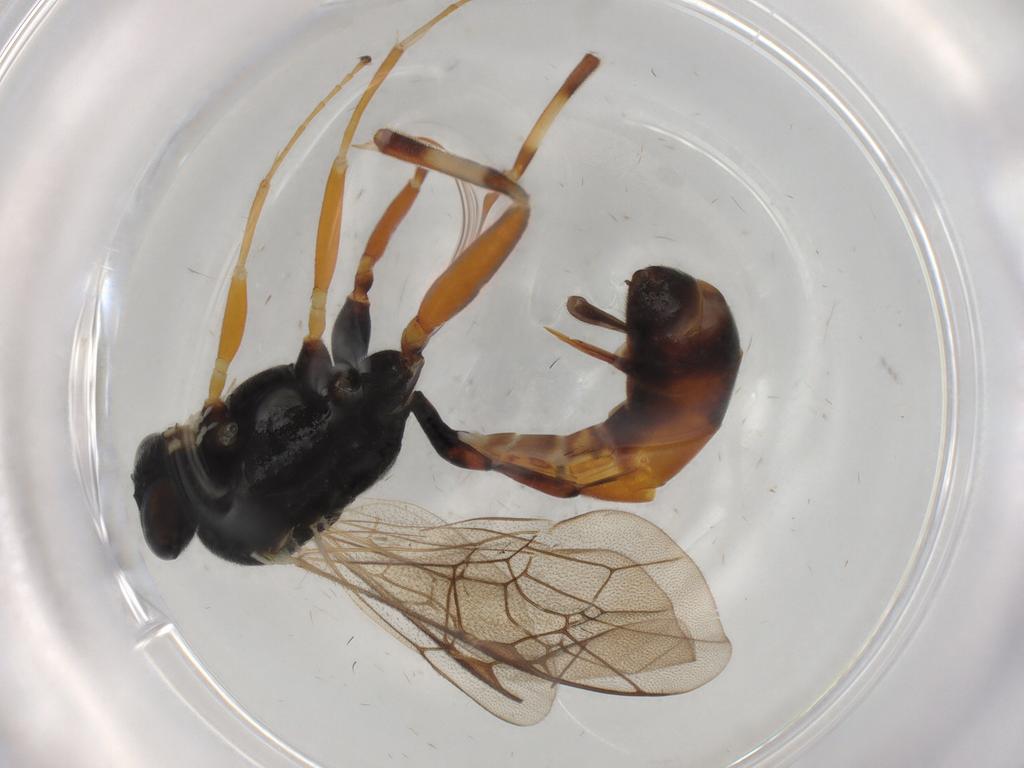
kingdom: Animalia
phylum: Arthropoda
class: Insecta
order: Hymenoptera
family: Ichneumonidae
